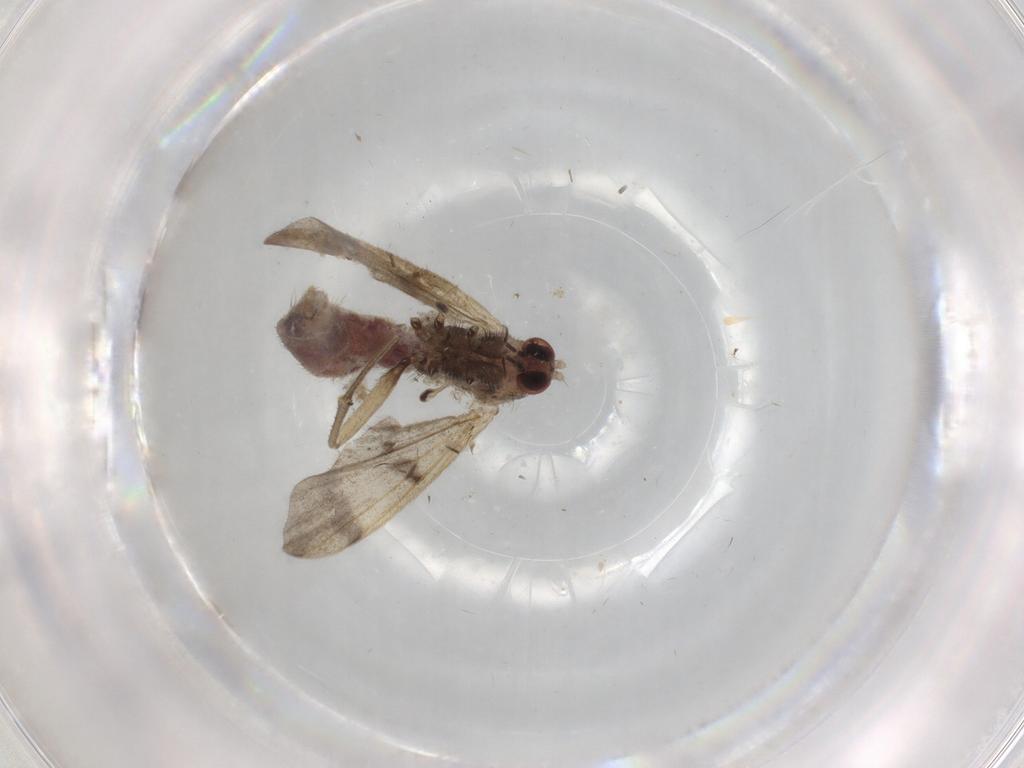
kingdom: Animalia
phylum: Arthropoda
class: Insecta
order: Diptera
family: Mycetophilidae
